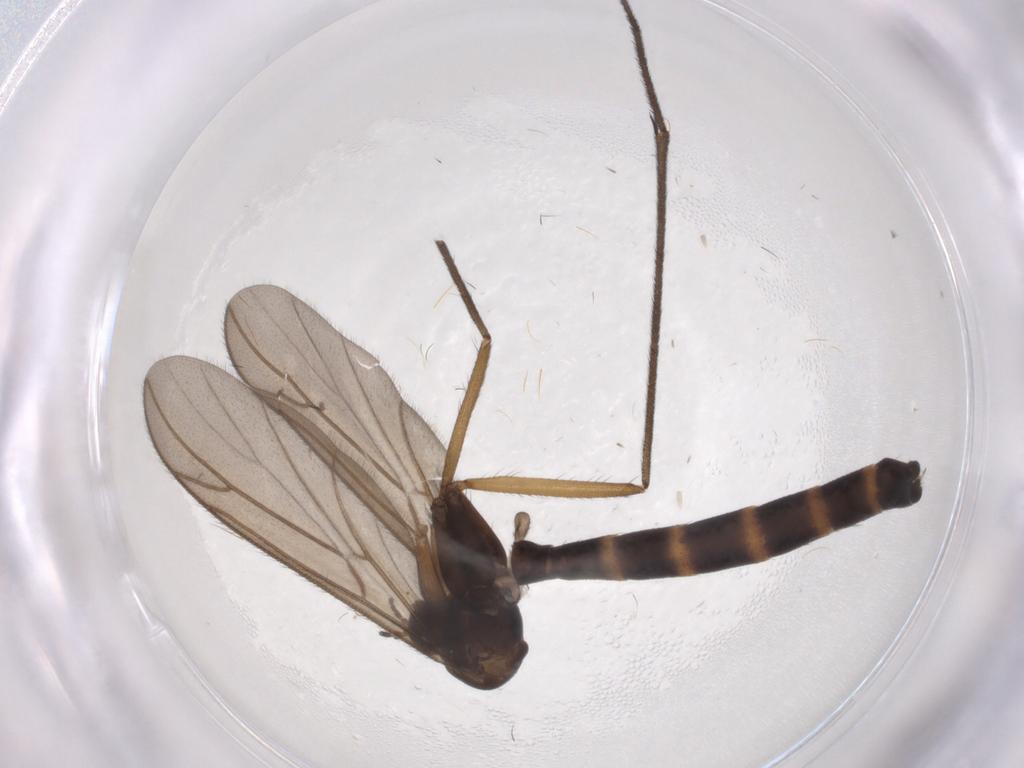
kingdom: Animalia
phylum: Arthropoda
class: Insecta
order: Diptera
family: Ditomyiidae
